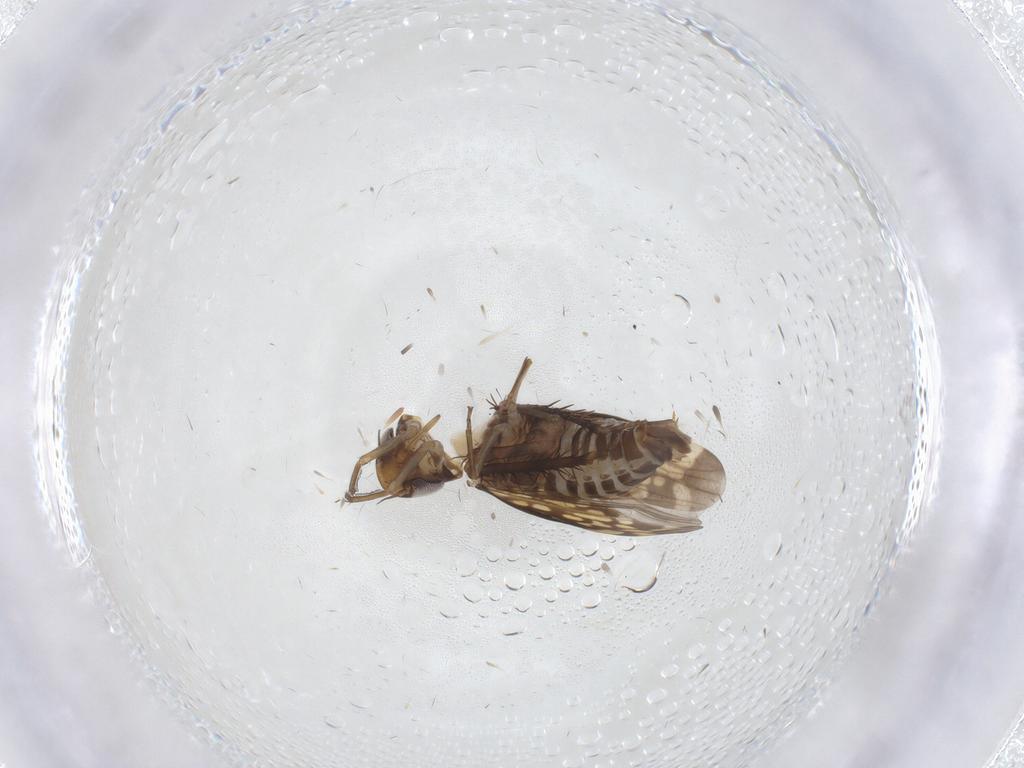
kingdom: Animalia
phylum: Arthropoda
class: Insecta
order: Hemiptera
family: Cicadellidae
